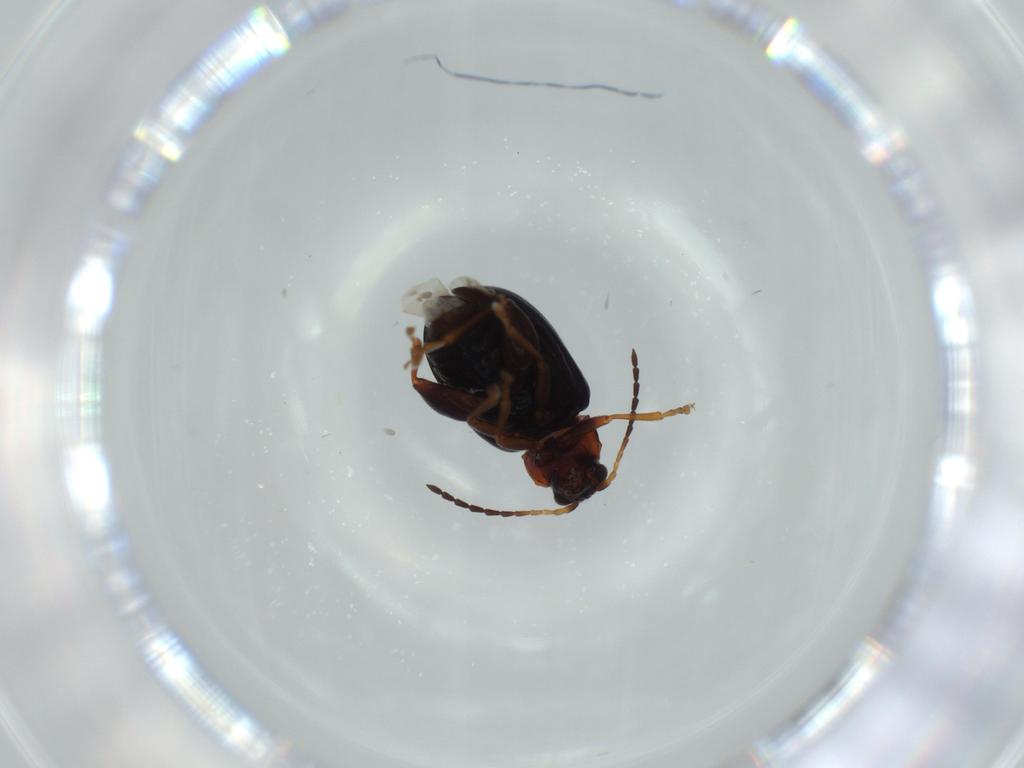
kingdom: Animalia
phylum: Arthropoda
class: Insecta
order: Coleoptera
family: Chrysomelidae
